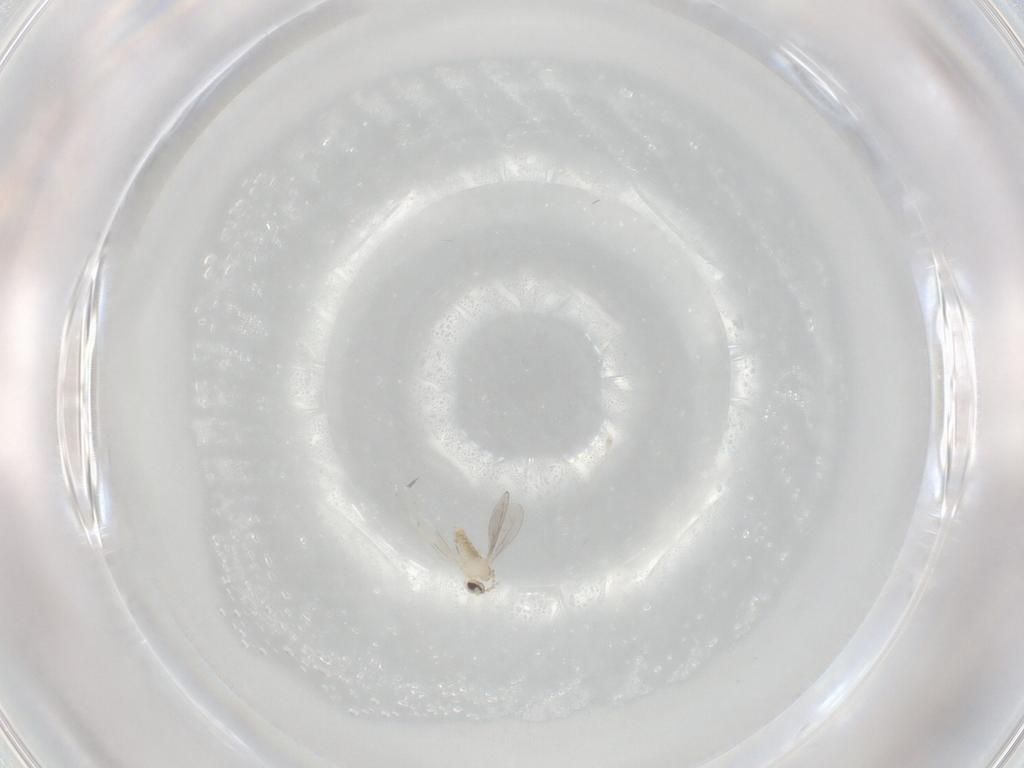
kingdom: Animalia
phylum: Arthropoda
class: Insecta
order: Diptera
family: Cecidomyiidae
